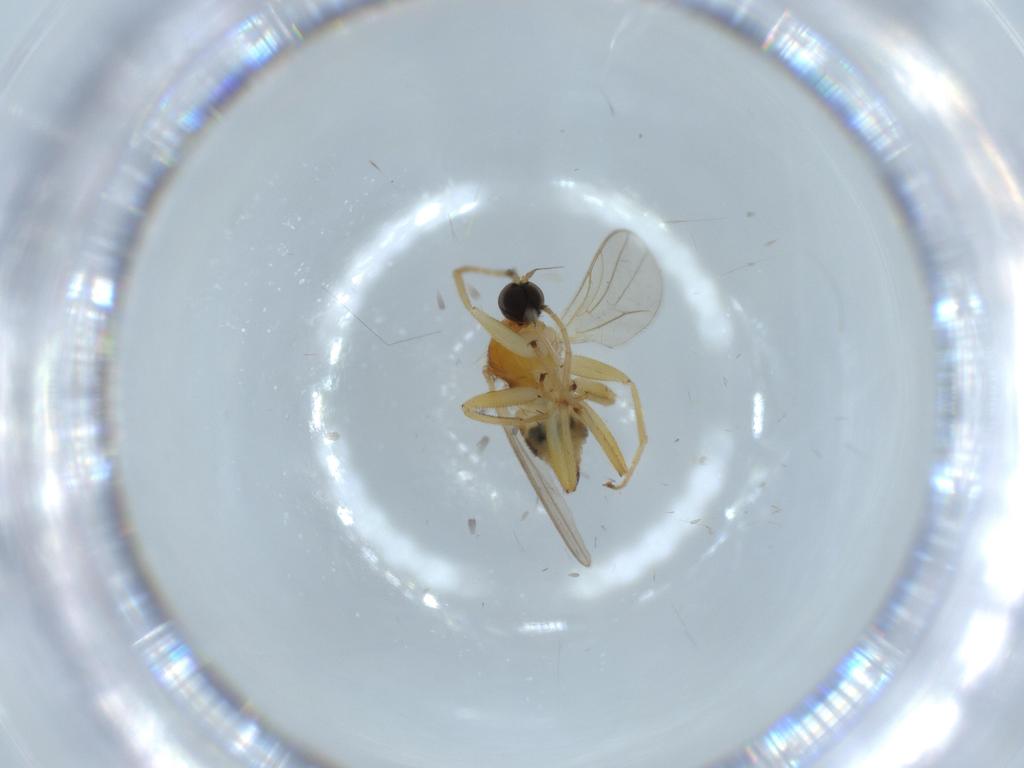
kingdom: Animalia
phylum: Arthropoda
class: Insecta
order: Diptera
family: Hybotidae
